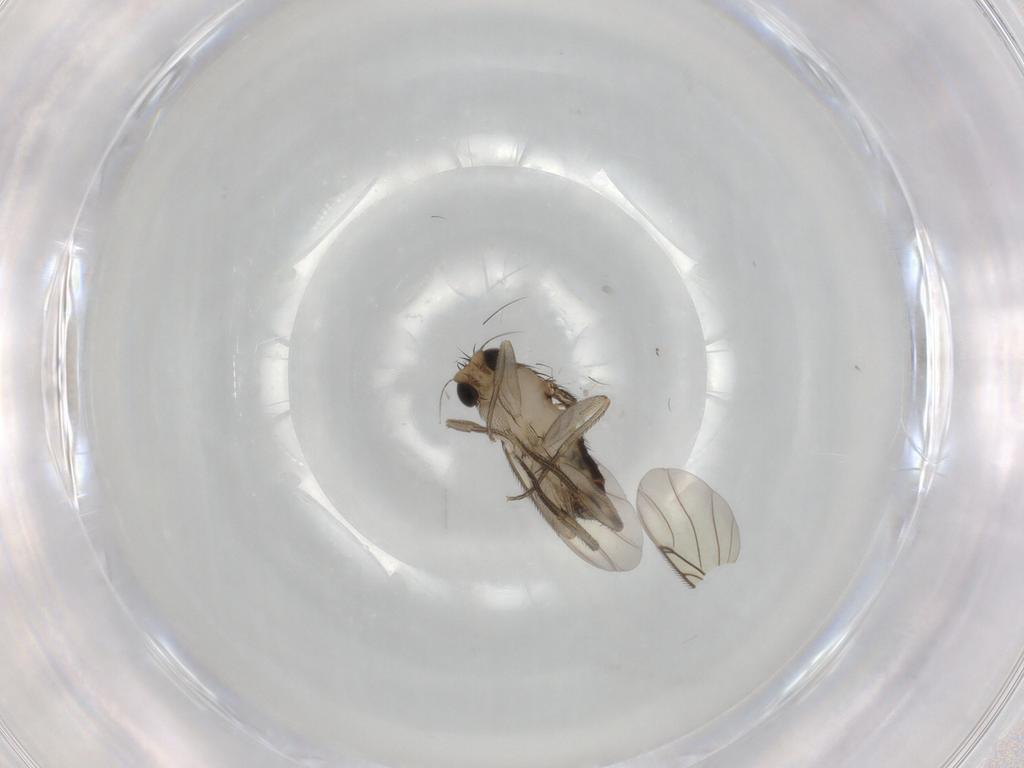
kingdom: Animalia
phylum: Arthropoda
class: Insecta
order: Diptera
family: Phoridae
